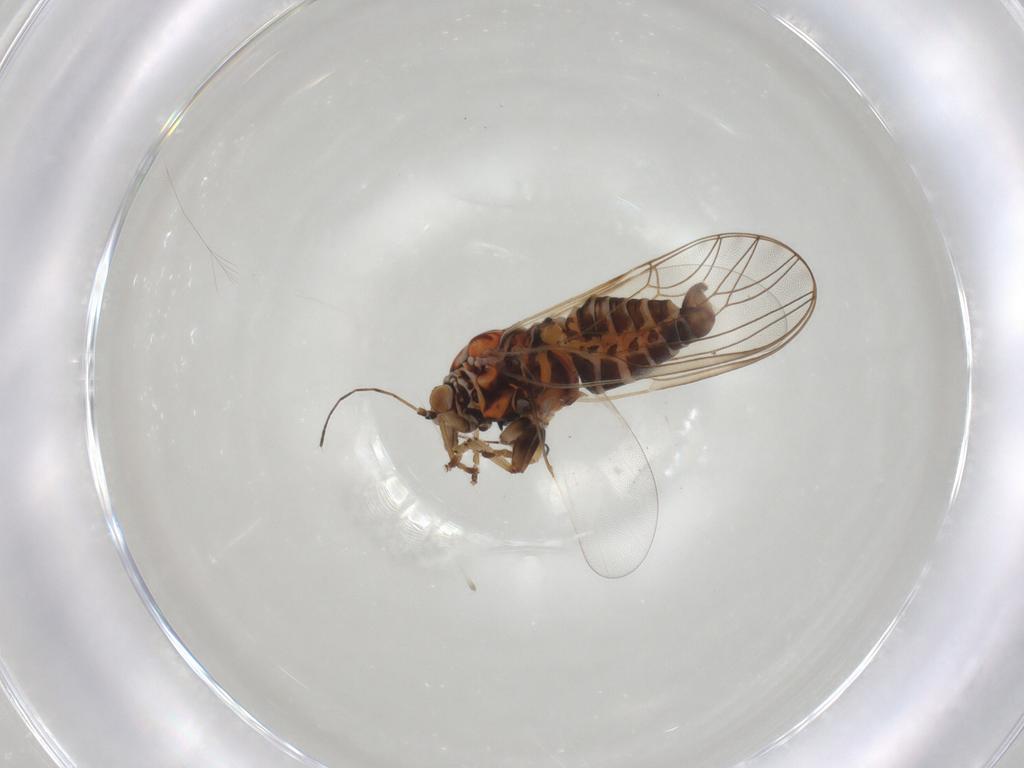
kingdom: Animalia
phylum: Arthropoda
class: Insecta
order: Hemiptera
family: Psyllidae
